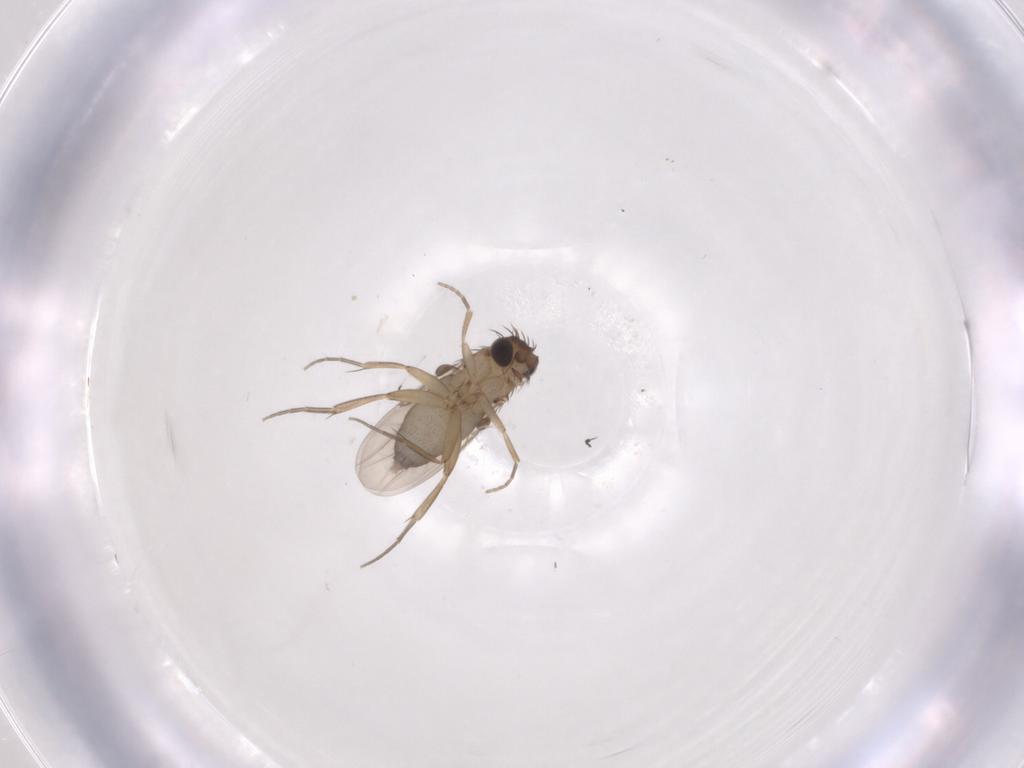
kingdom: Animalia
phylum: Arthropoda
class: Insecta
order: Diptera
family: Phoridae
